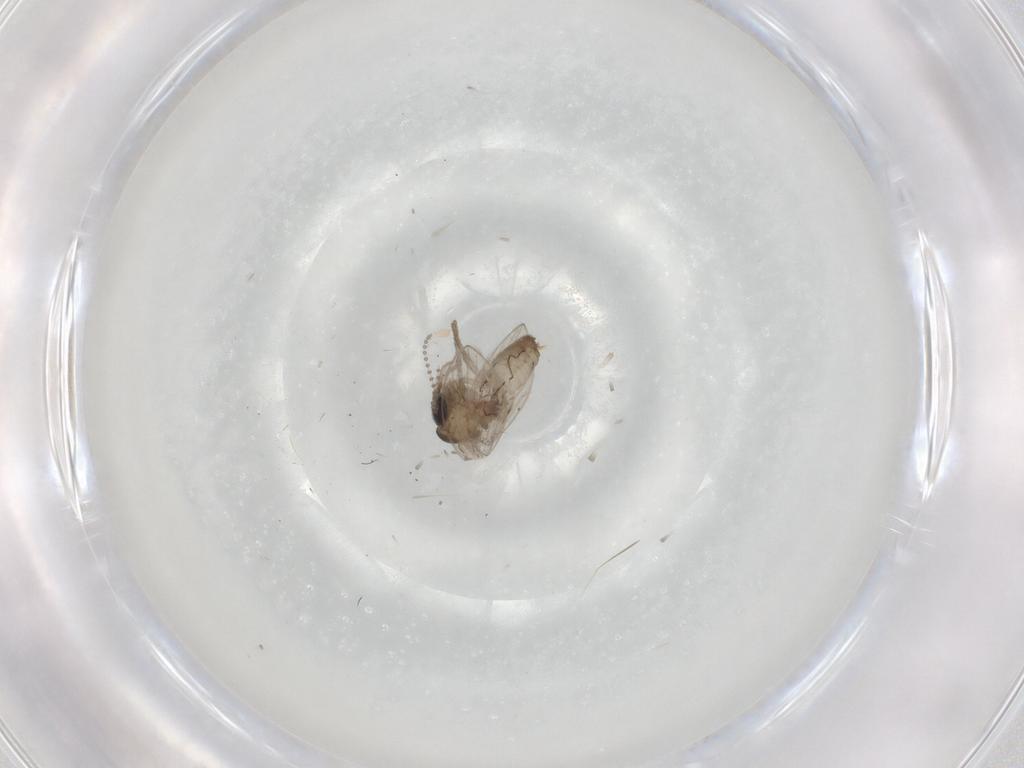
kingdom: Animalia
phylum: Arthropoda
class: Insecta
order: Diptera
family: Psychodidae
